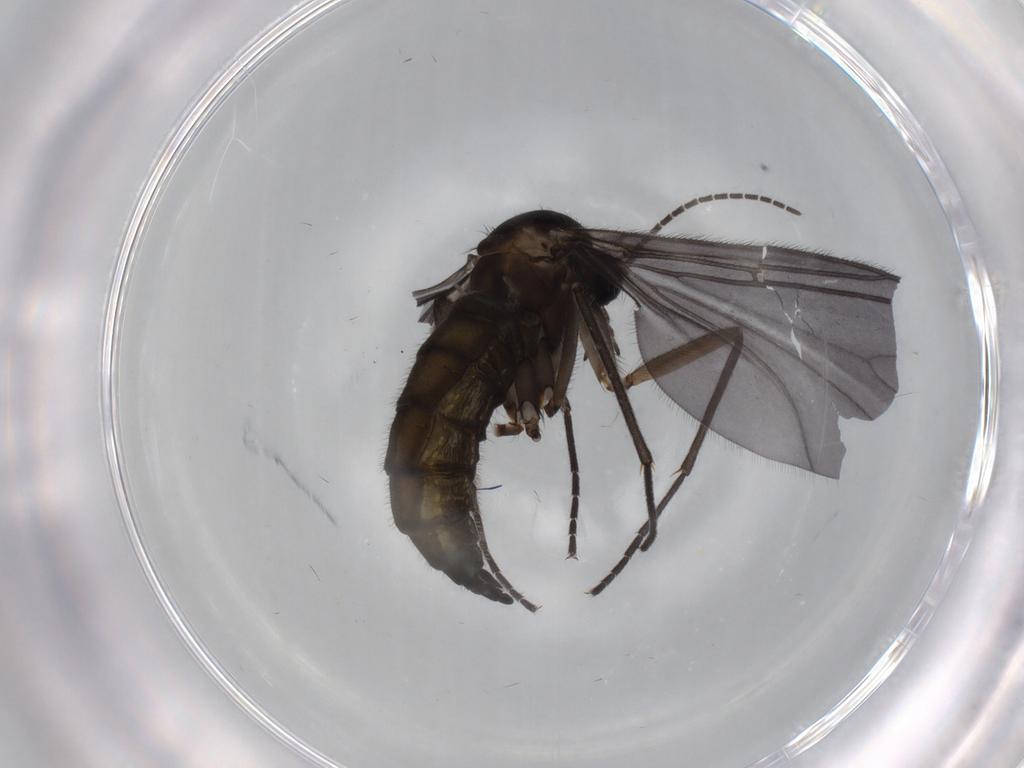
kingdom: Animalia
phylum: Arthropoda
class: Insecta
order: Diptera
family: Sciaridae
